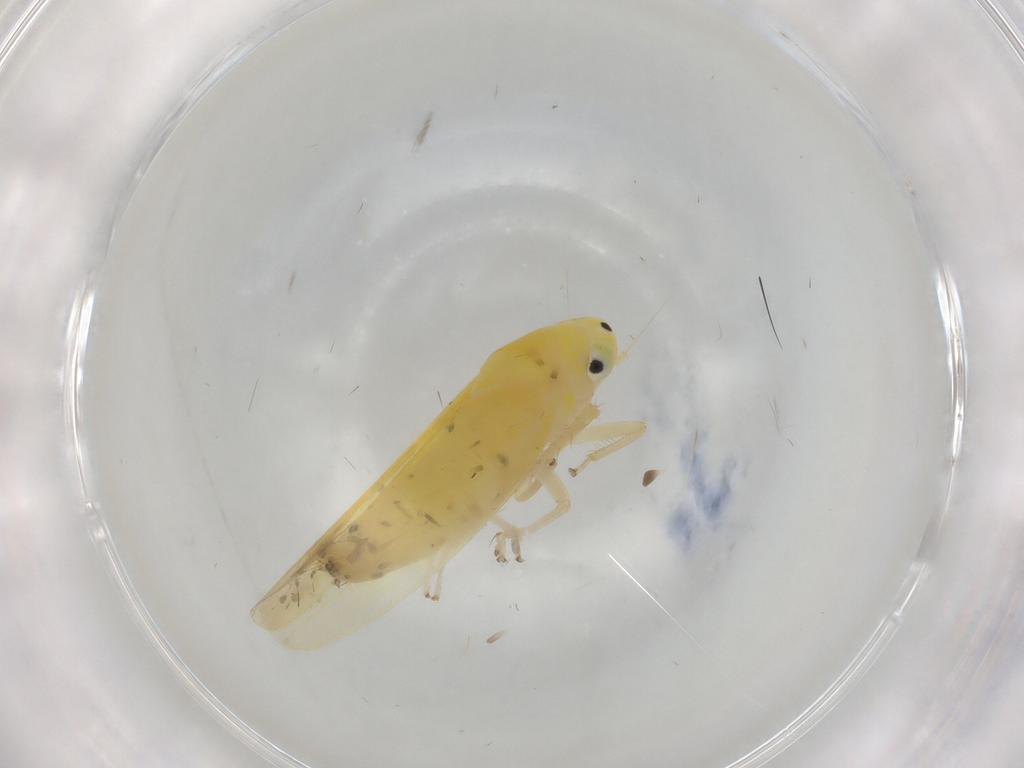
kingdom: Animalia
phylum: Arthropoda
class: Insecta
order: Hemiptera
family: Cicadellidae
